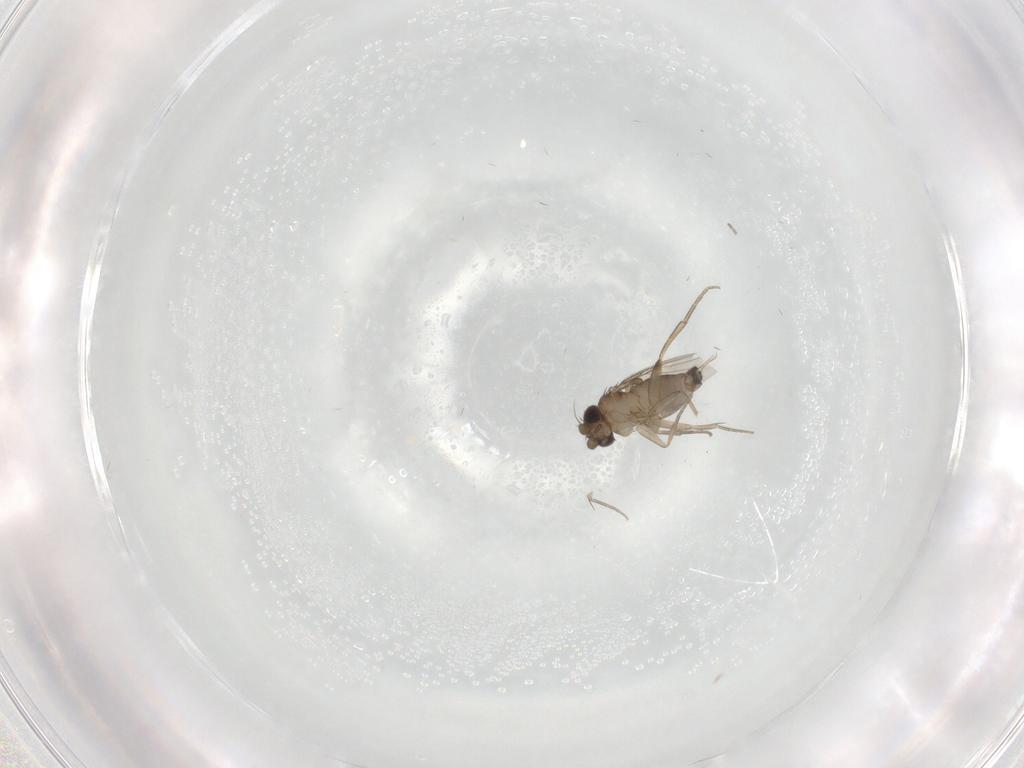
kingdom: Animalia
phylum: Arthropoda
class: Insecta
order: Diptera
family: Phoridae
